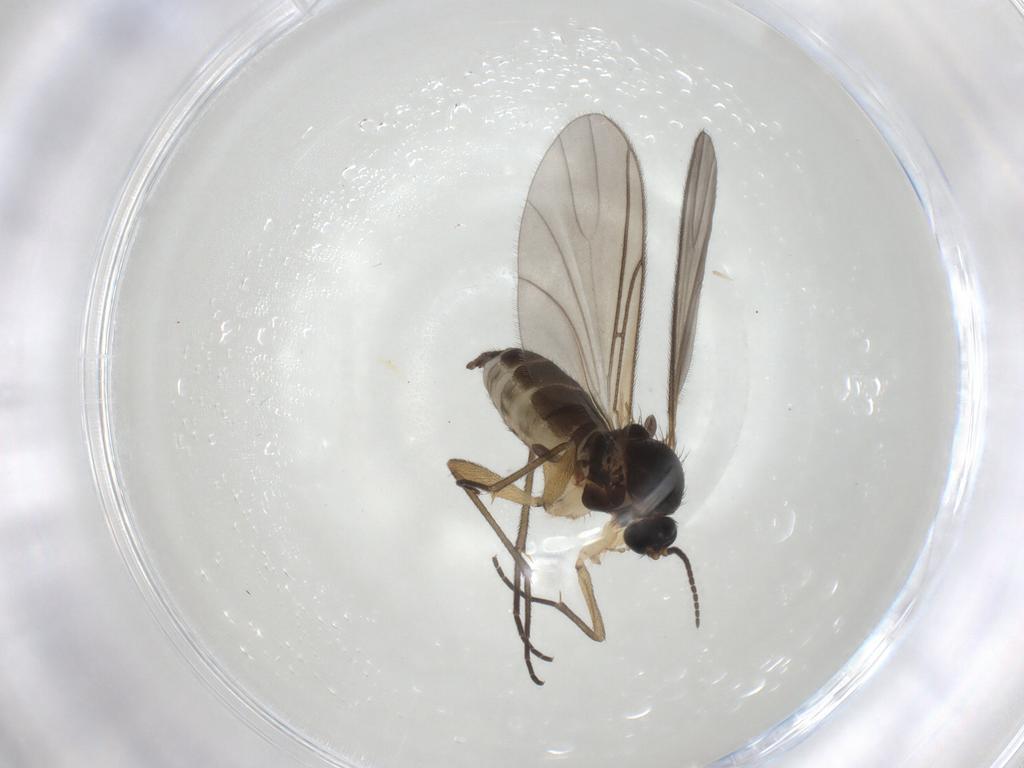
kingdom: Animalia
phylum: Arthropoda
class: Insecta
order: Diptera
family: Sciaridae
